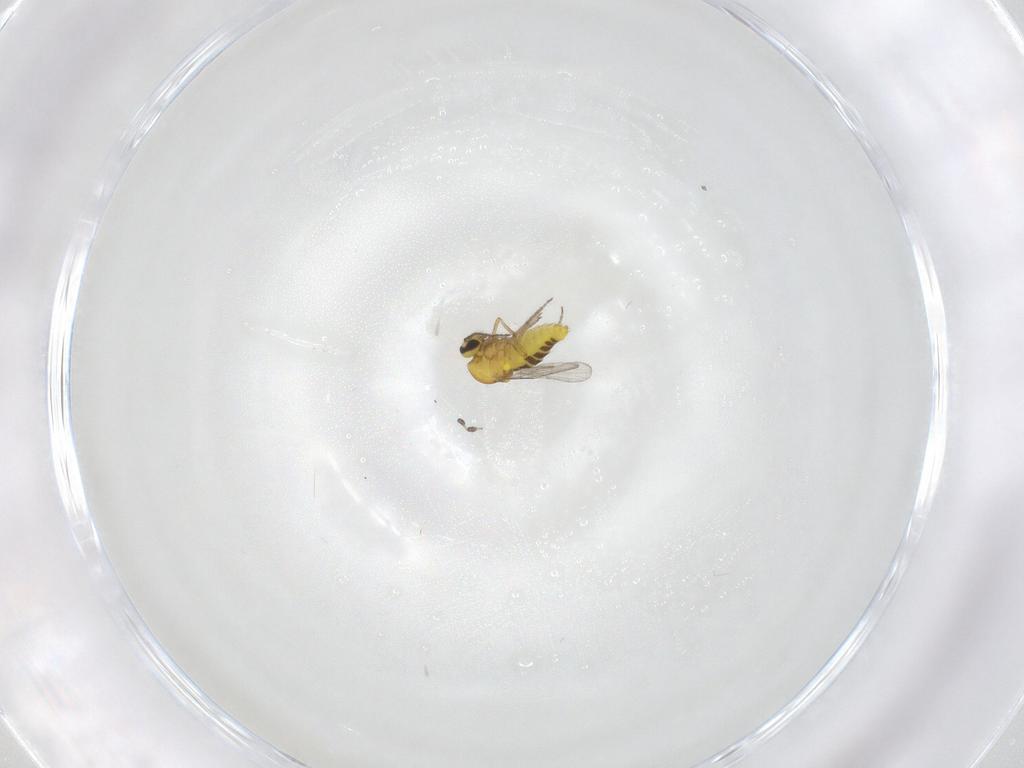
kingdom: Animalia
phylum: Arthropoda
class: Insecta
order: Diptera
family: Ceratopogonidae
